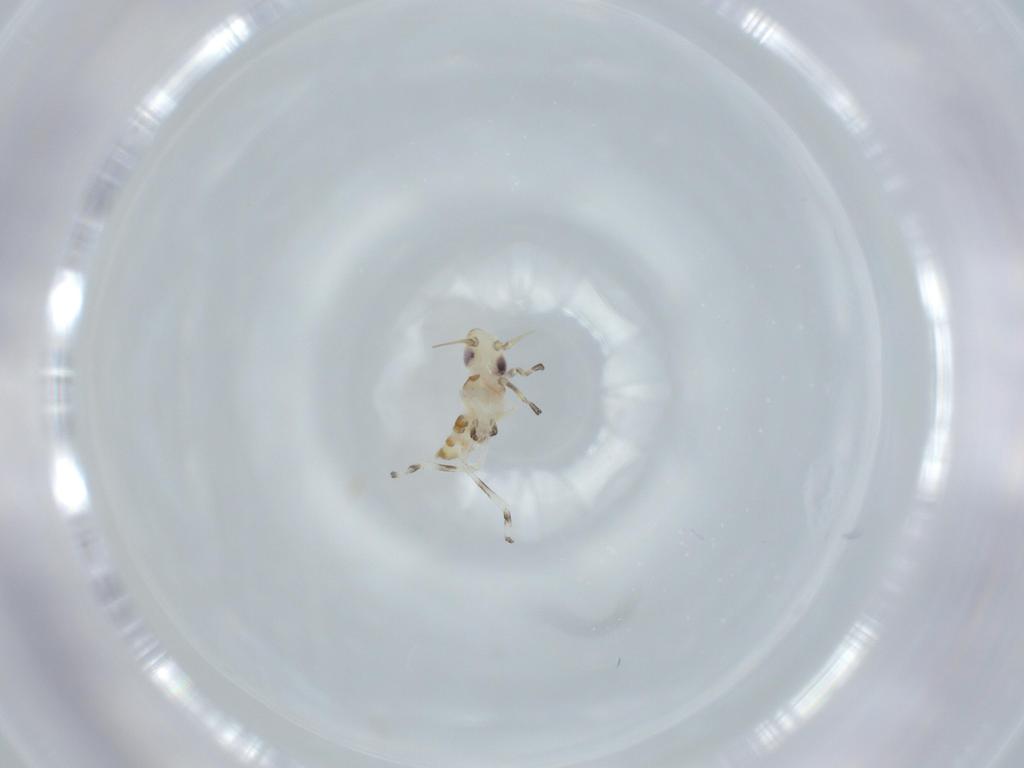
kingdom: Animalia
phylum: Arthropoda
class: Insecta
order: Hemiptera
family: Cicadellidae
